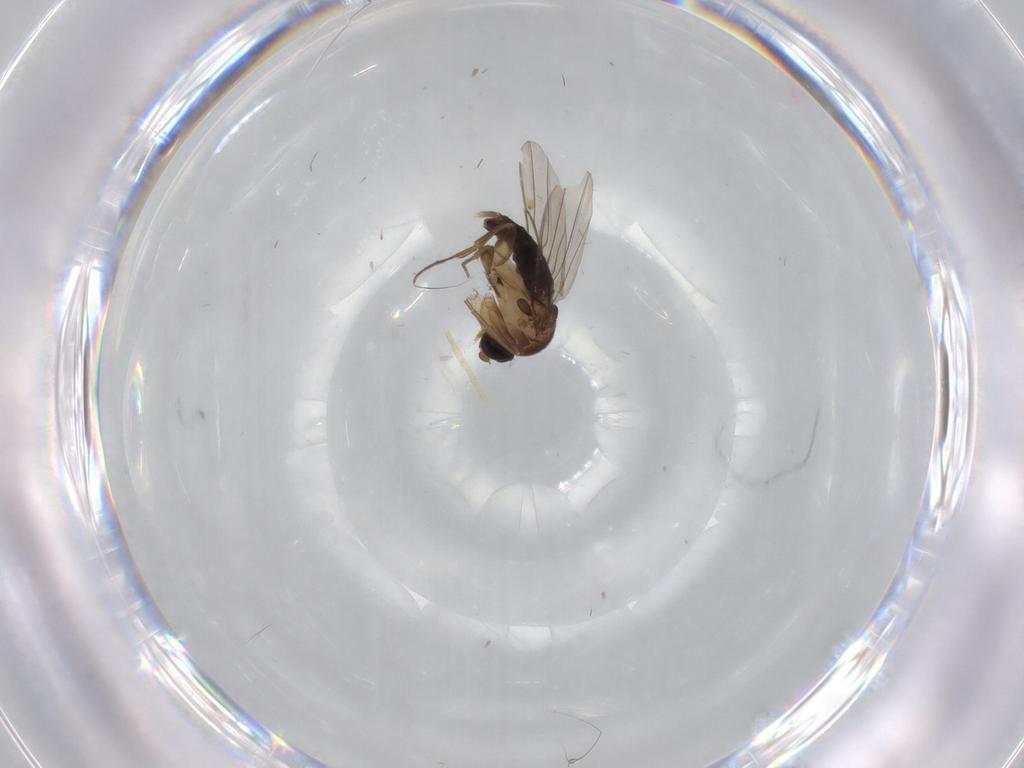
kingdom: Animalia
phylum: Arthropoda
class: Insecta
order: Diptera
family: Phoridae
